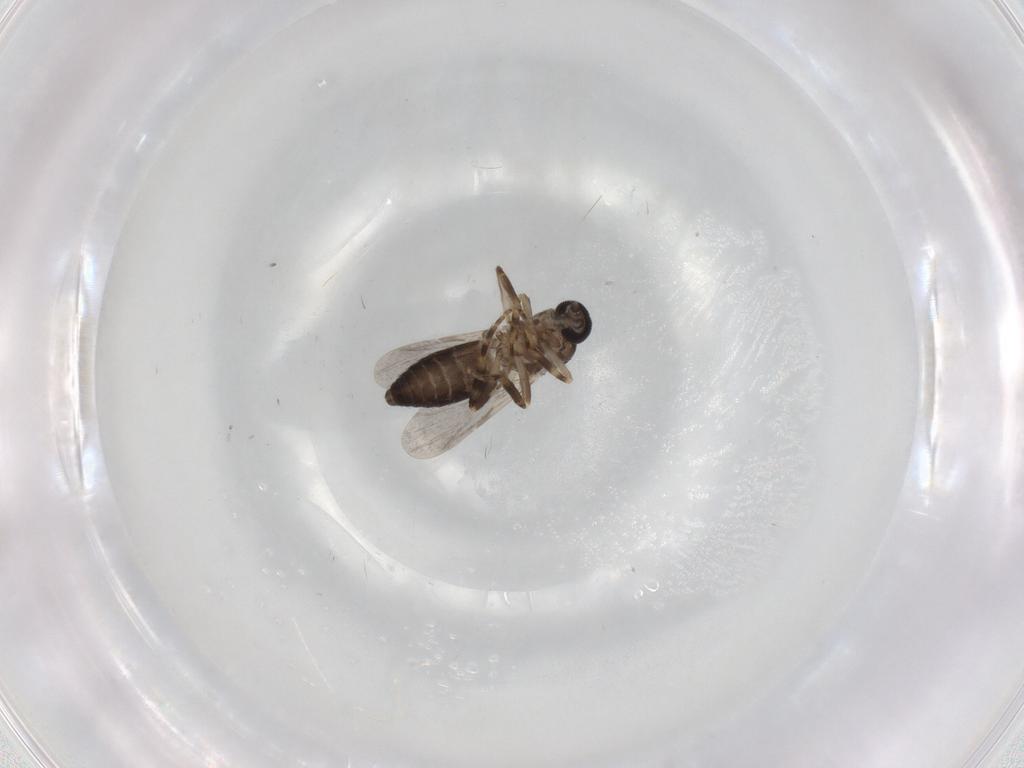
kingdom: Animalia
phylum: Arthropoda
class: Insecta
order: Diptera
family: Ceratopogonidae
